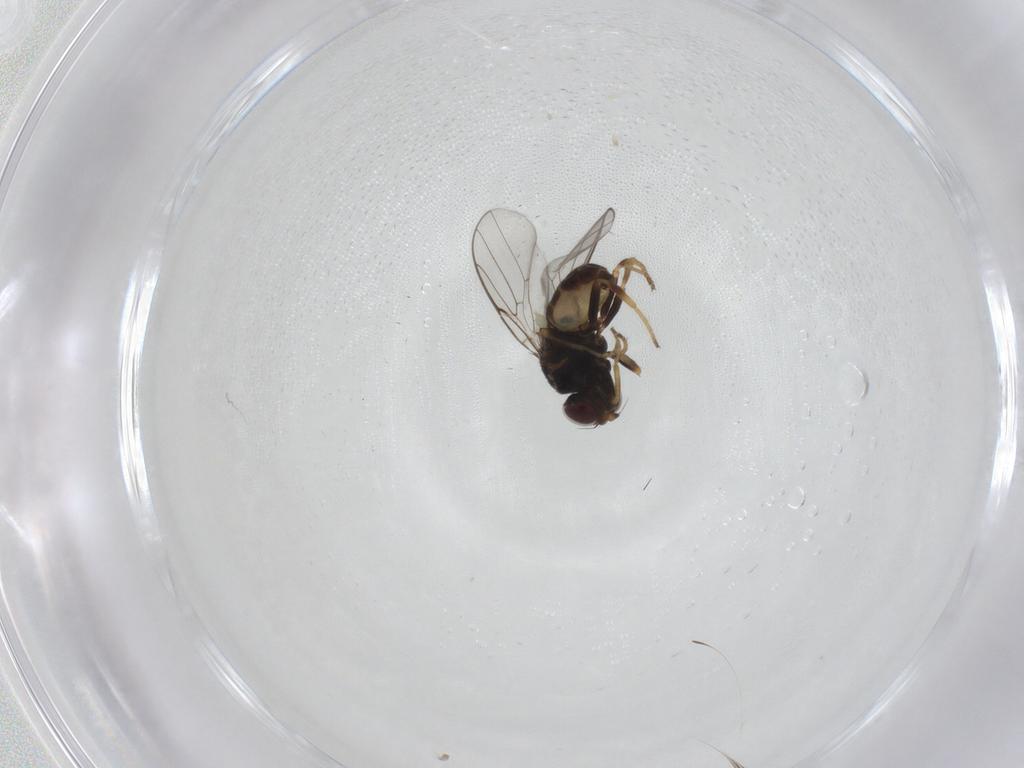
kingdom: Animalia
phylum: Arthropoda
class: Insecta
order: Diptera
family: Chloropidae
